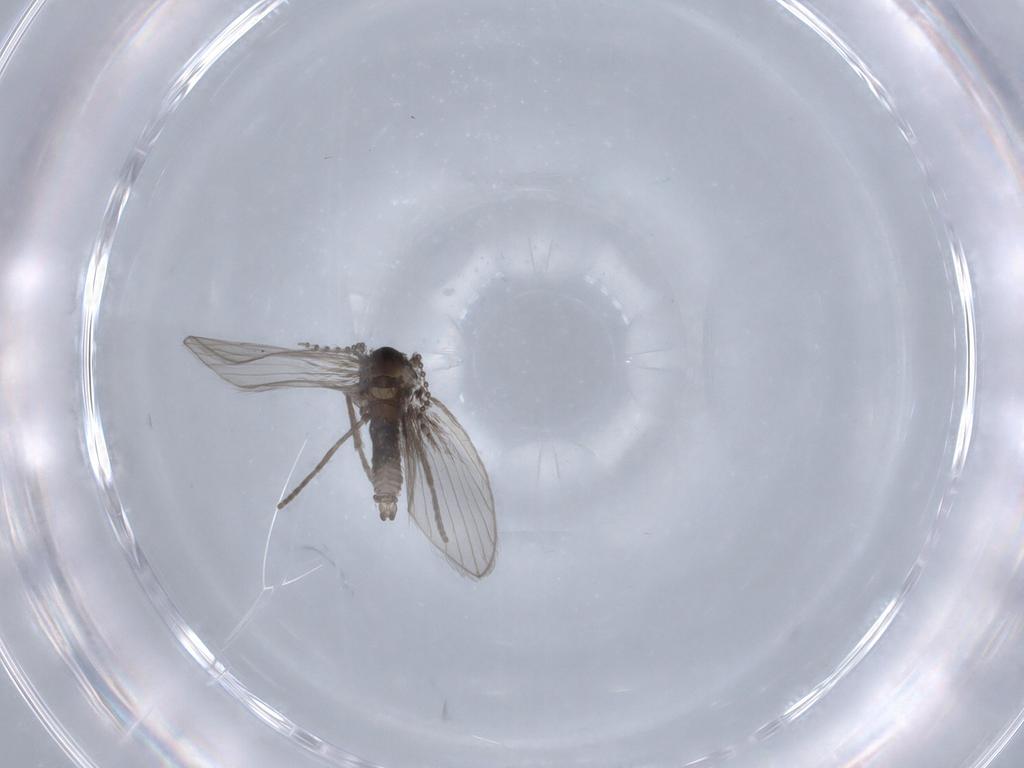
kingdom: Animalia
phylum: Arthropoda
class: Insecta
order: Diptera
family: Psychodidae
